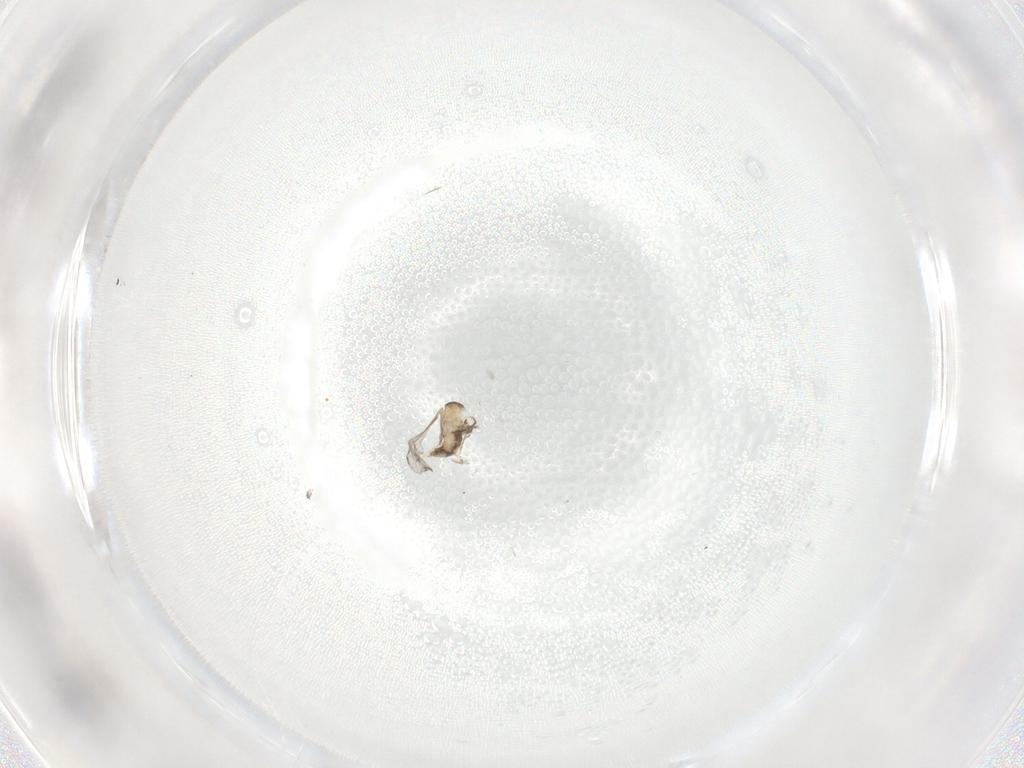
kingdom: Animalia
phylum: Arthropoda
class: Insecta
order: Diptera
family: Cecidomyiidae
